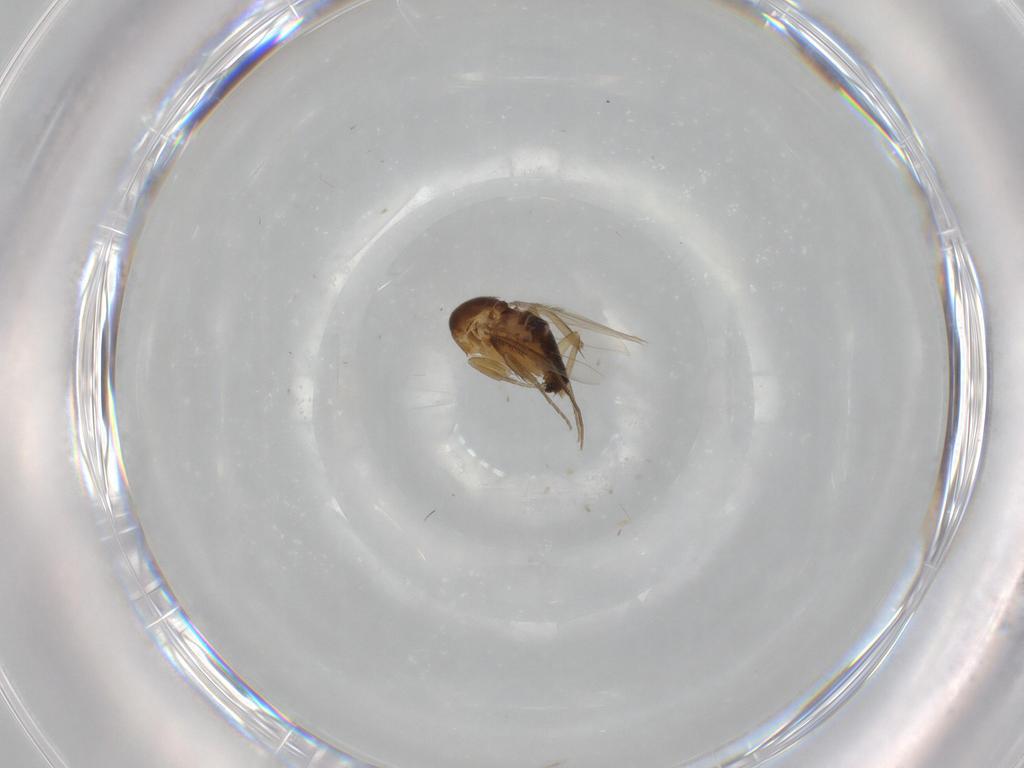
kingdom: Animalia
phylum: Arthropoda
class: Insecta
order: Diptera
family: Phoridae
